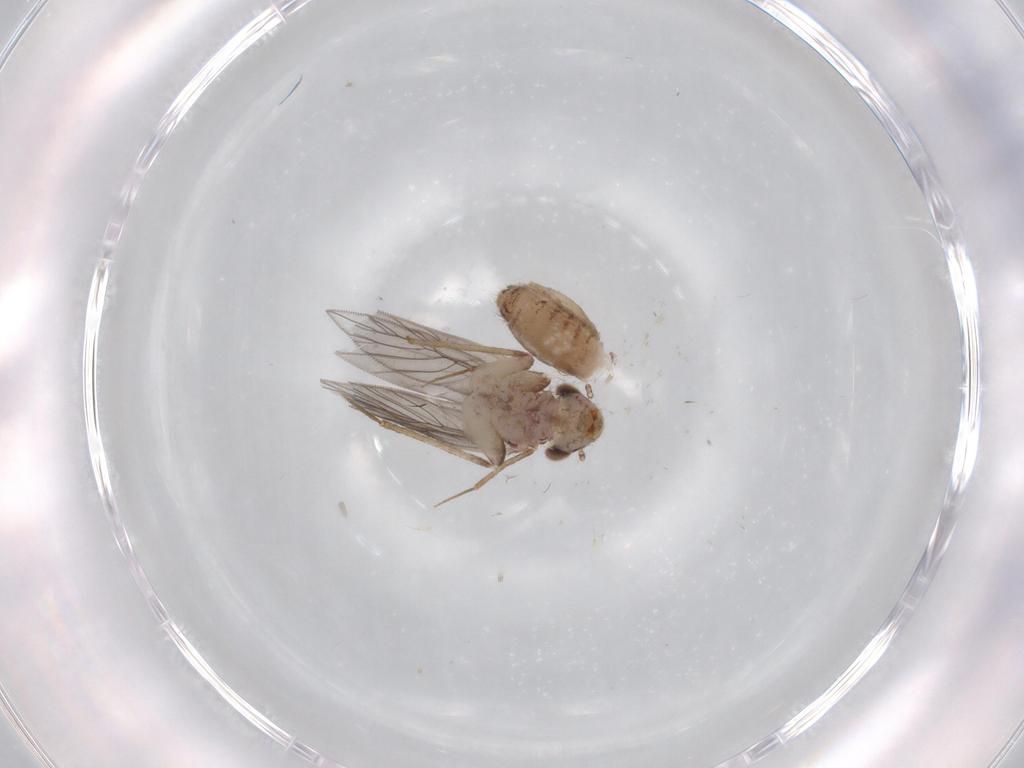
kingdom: Animalia
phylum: Arthropoda
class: Insecta
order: Psocodea
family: Lepidopsocidae
